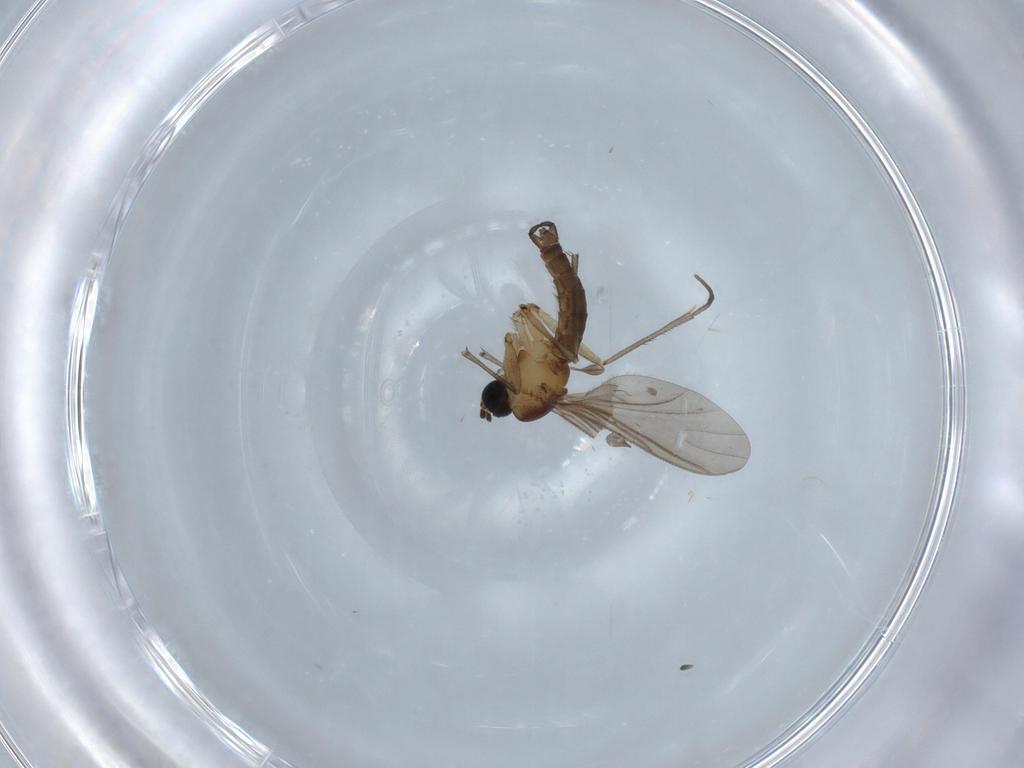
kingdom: Animalia
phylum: Arthropoda
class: Insecta
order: Diptera
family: Sciaridae
